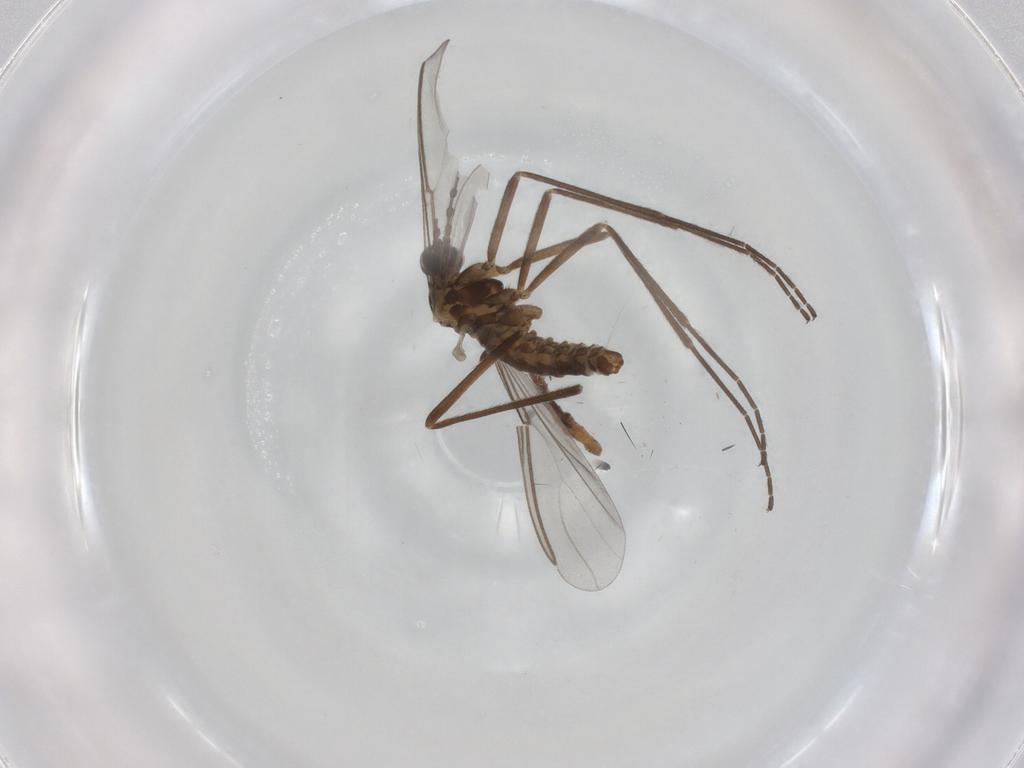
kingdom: Animalia
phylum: Arthropoda
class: Insecta
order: Diptera
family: Cecidomyiidae
